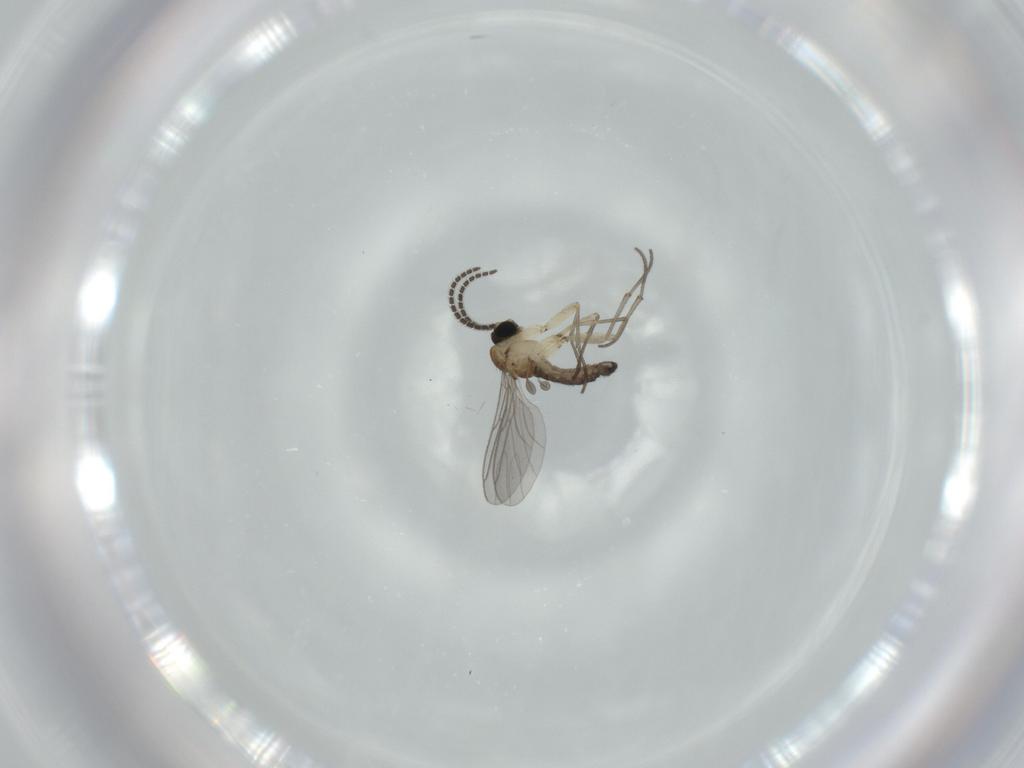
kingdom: Animalia
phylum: Arthropoda
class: Insecta
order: Diptera
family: Sciaridae
